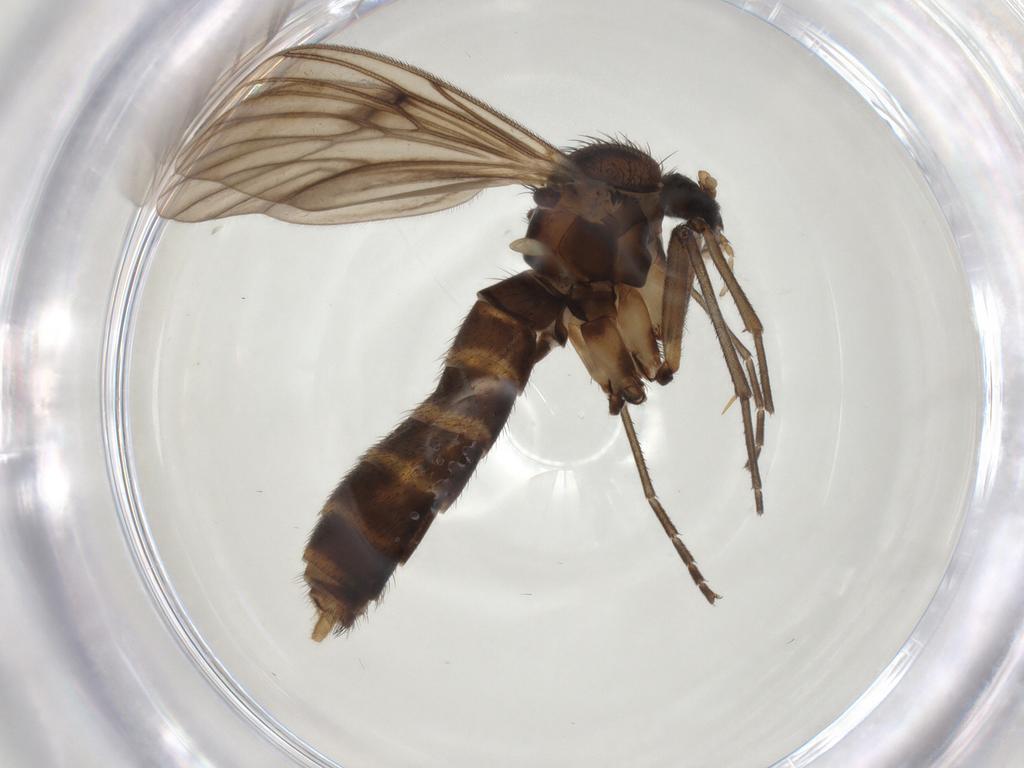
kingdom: Animalia
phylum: Arthropoda
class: Insecta
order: Diptera
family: Mycetophilidae
